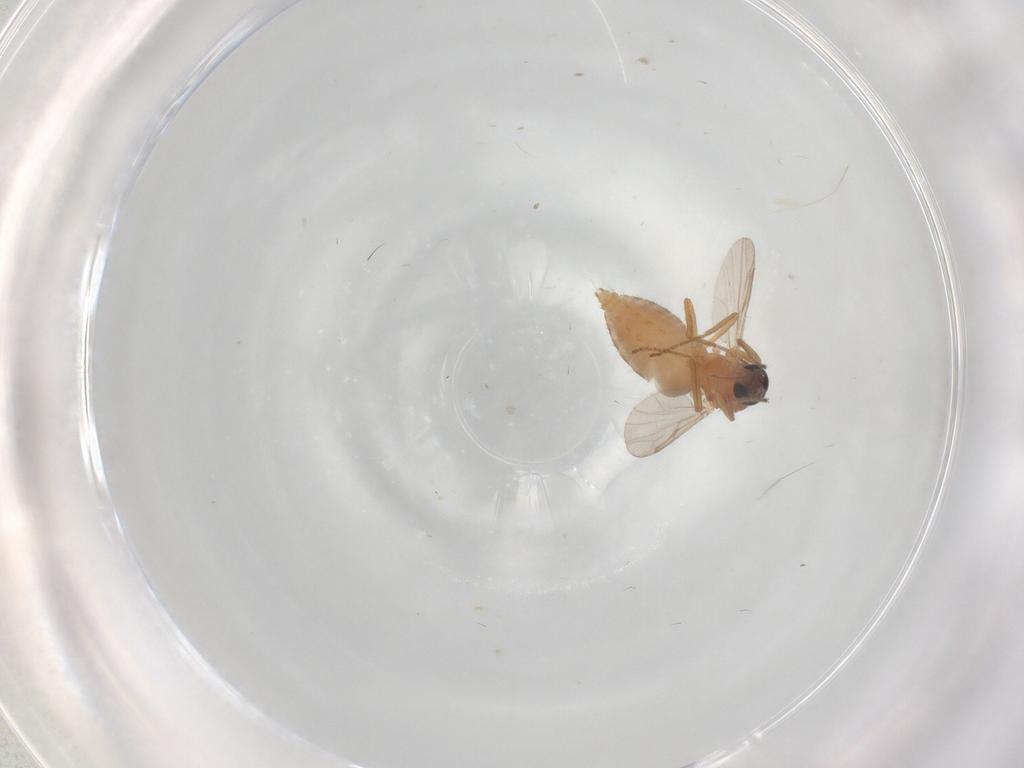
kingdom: Animalia
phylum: Arthropoda
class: Insecta
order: Diptera
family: Ceratopogonidae
